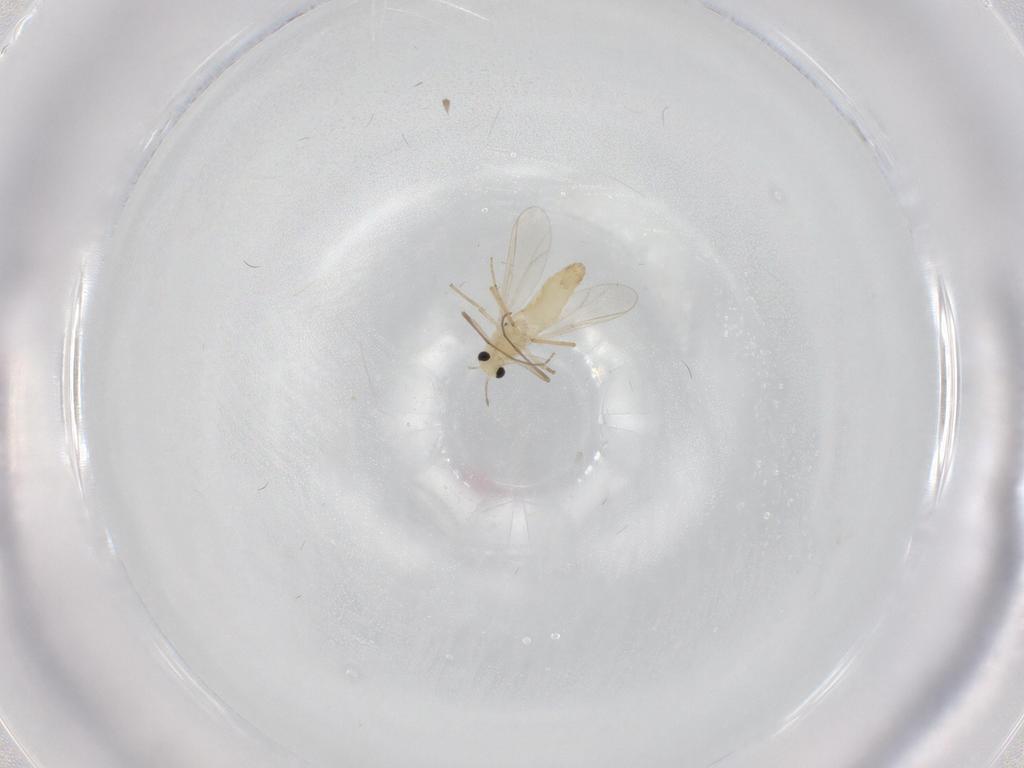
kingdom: Animalia
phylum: Arthropoda
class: Insecta
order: Diptera
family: Chironomidae
